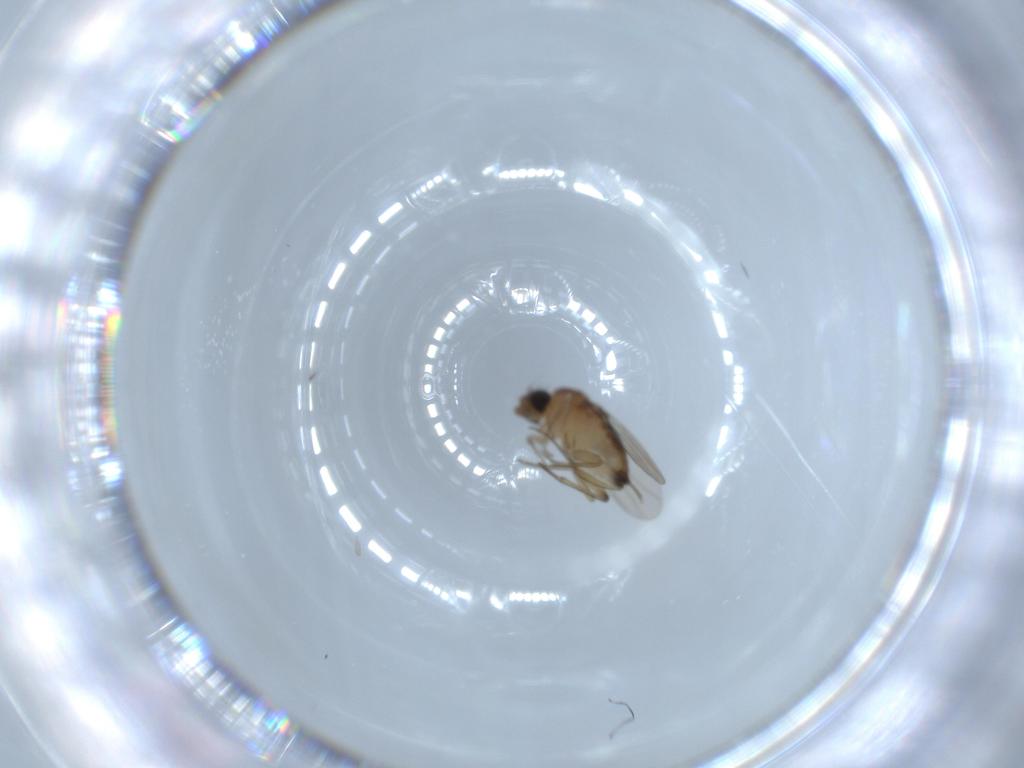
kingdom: Animalia
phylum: Arthropoda
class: Insecta
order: Diptera
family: Phoridae
